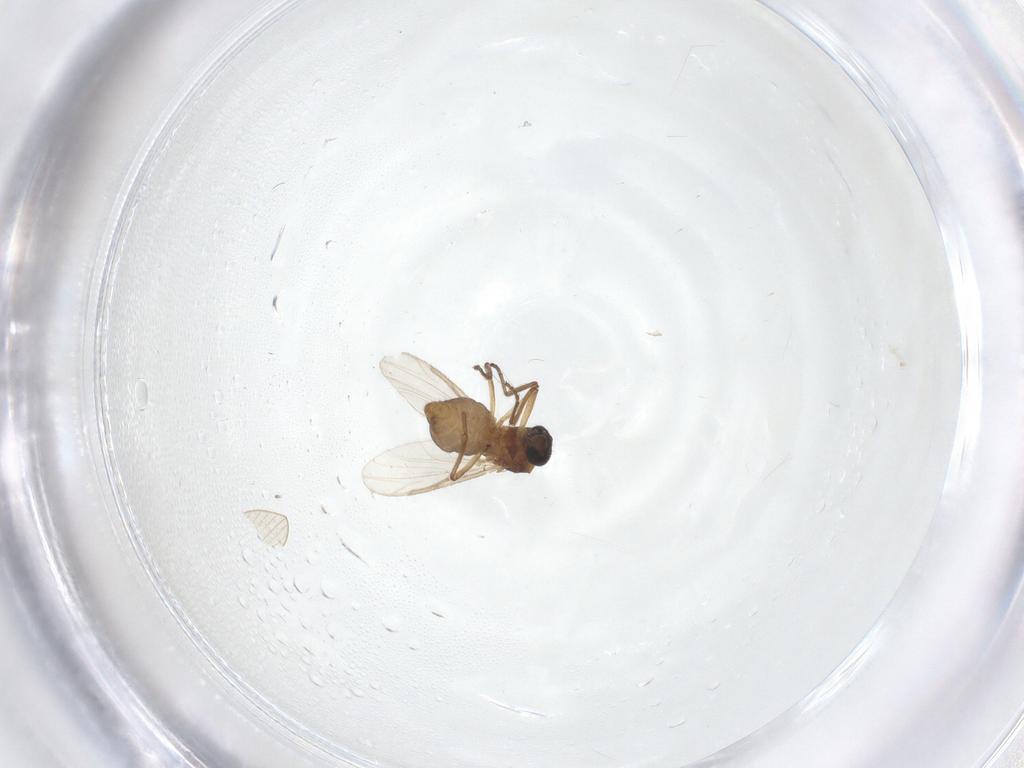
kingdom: Animalia
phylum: Arthropoda
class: Insecta
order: Diptera
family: Ceratopogonidae
